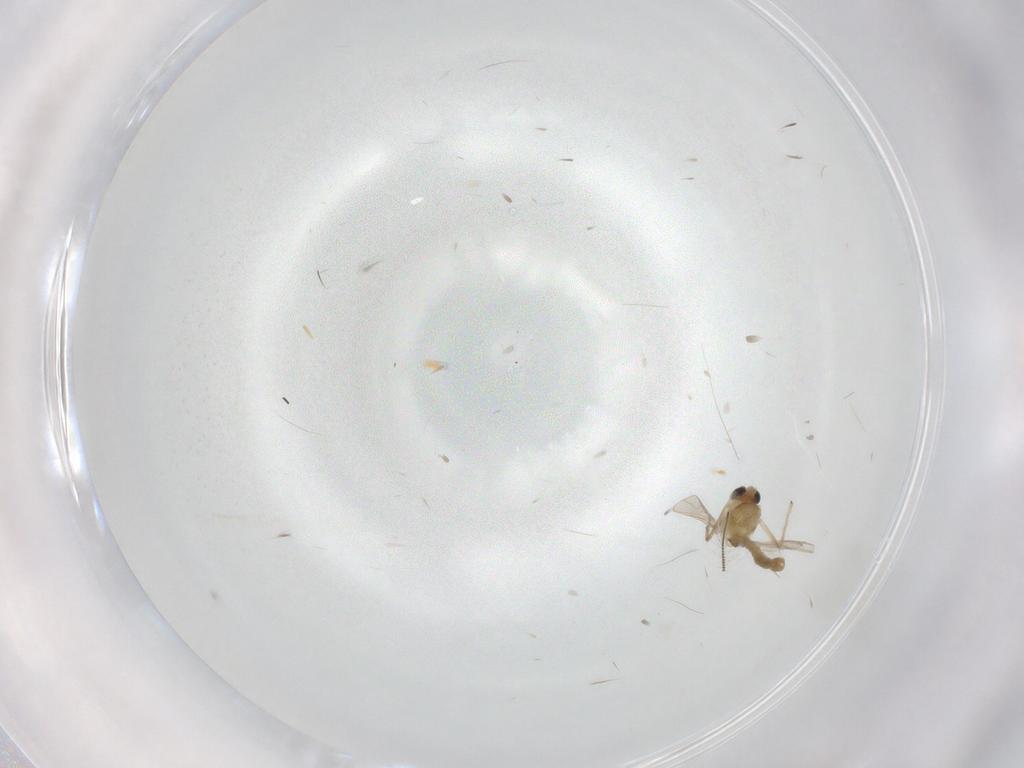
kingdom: Animalia
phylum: Arthropoda
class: Insecta
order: Diptera
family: Chironomidae
